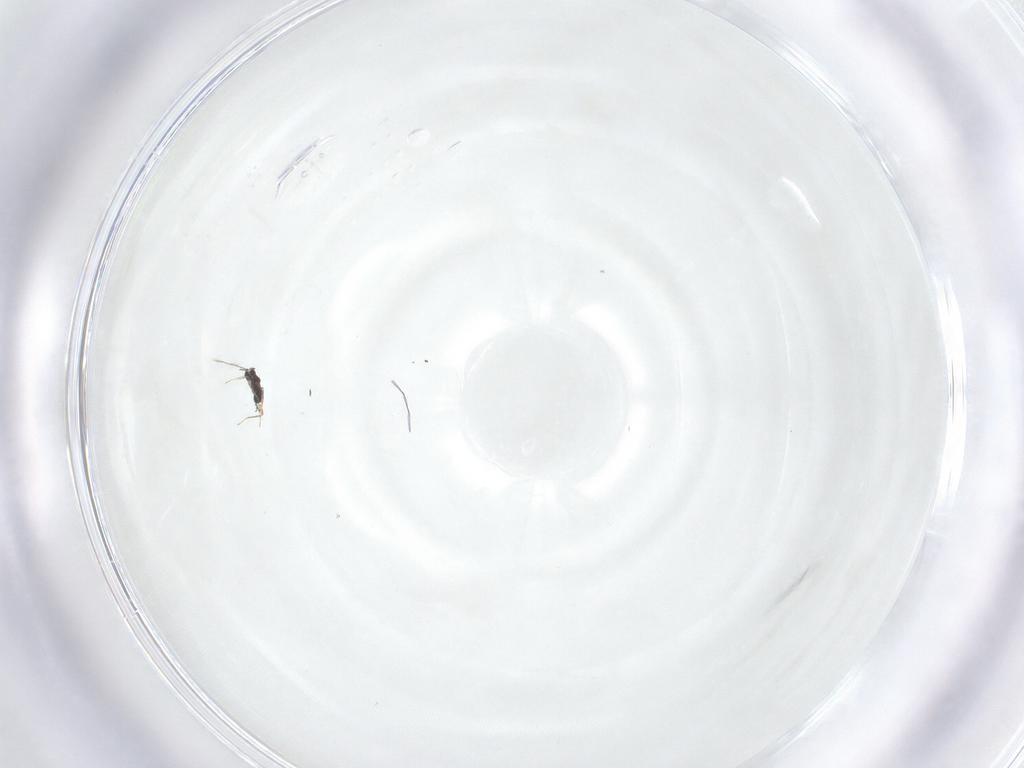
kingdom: Animalia
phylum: Arthropoda
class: Insecta
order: Hymenoptera
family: Mymaridae
